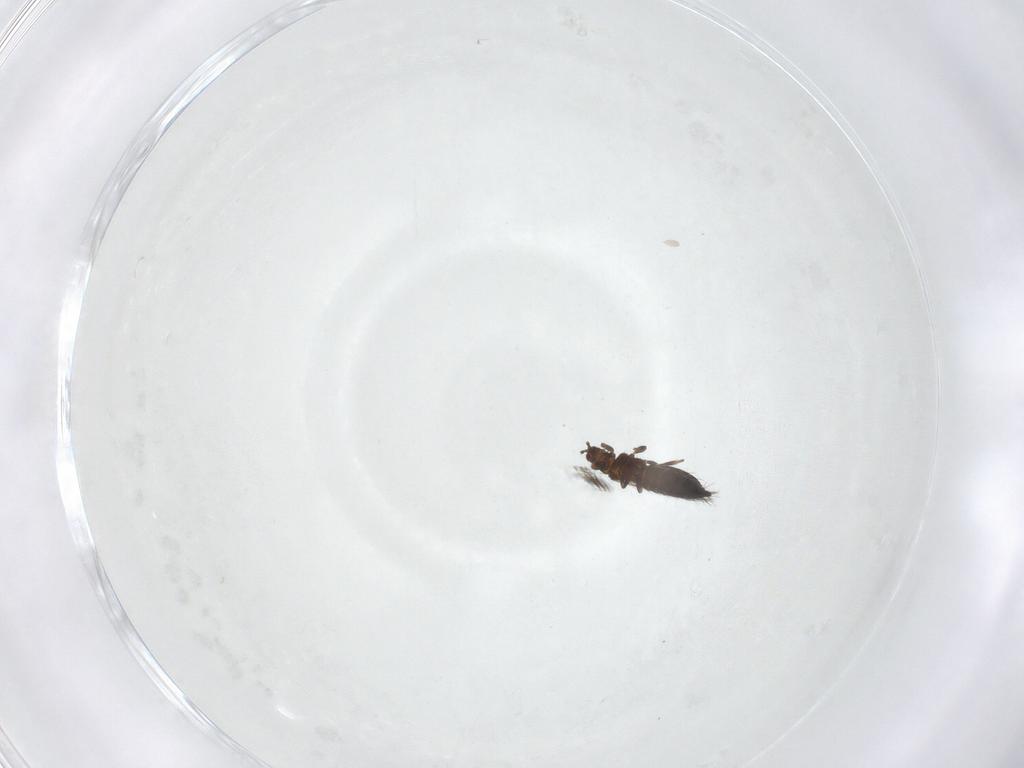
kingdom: Animalia
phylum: Arthropoda
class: Insecta
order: Thysanoptera
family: Thripidae
